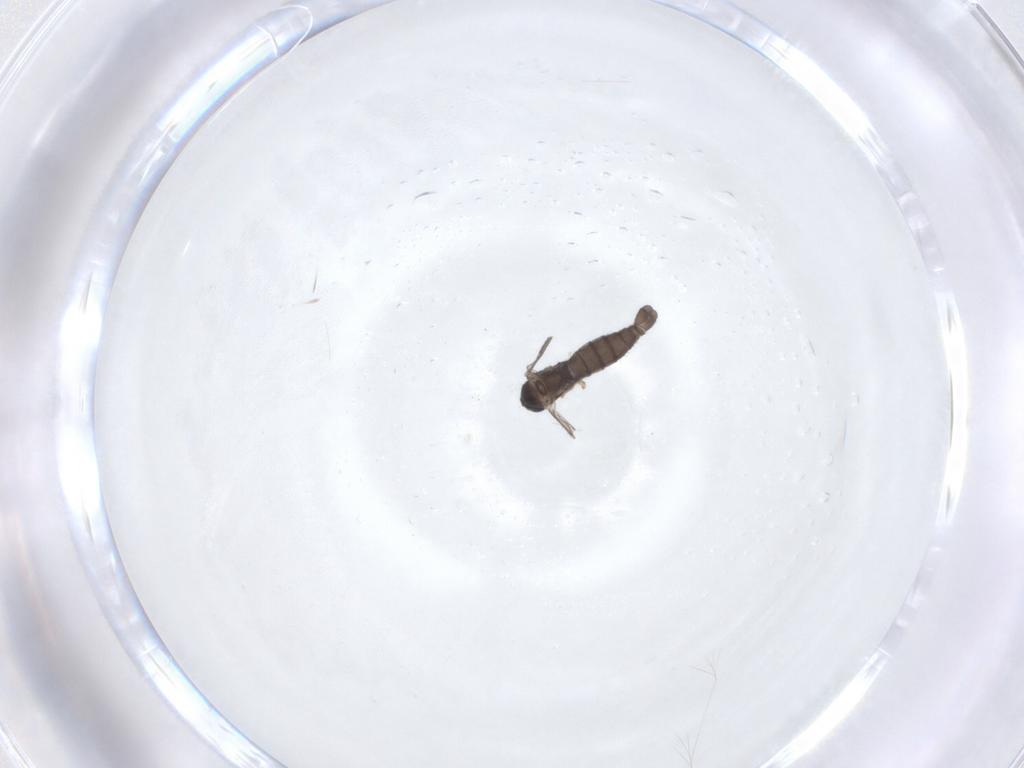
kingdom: Animalia
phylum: Arthropoda
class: Insecta
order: Diptera
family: Sciaridae
